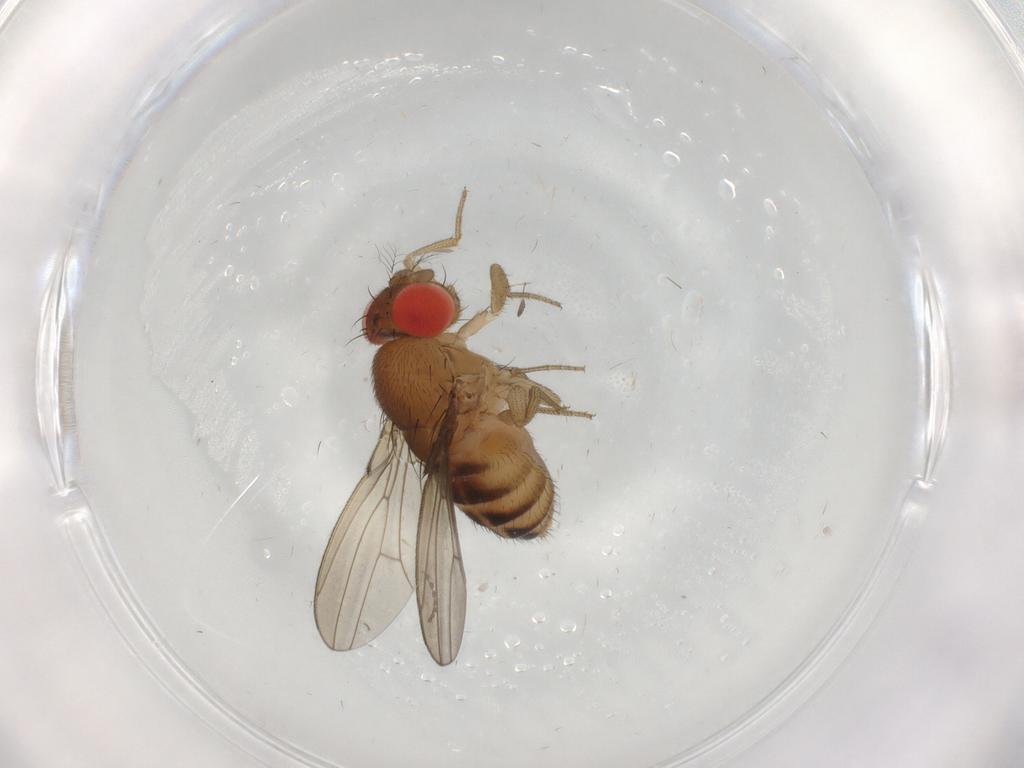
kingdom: Animalia
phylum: Arthropoda
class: Insecta
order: Diptera
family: Drosophilidae
